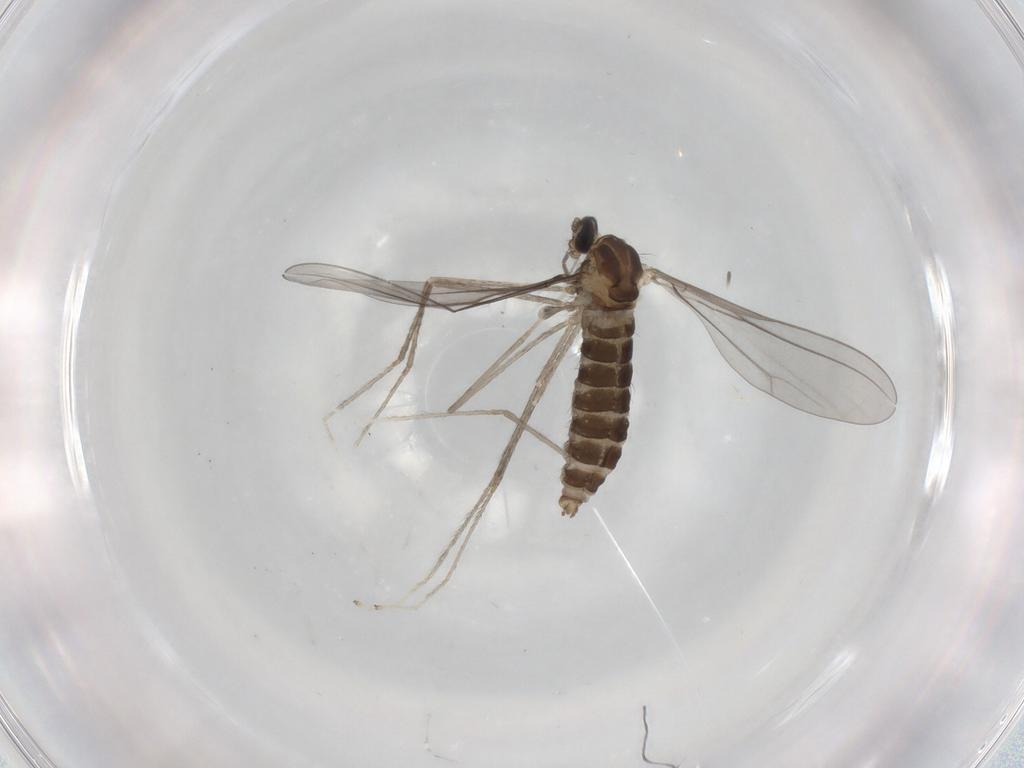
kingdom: Animalia
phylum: Arthropoda
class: Insecta
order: Diptera
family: Cecidomyiidae
